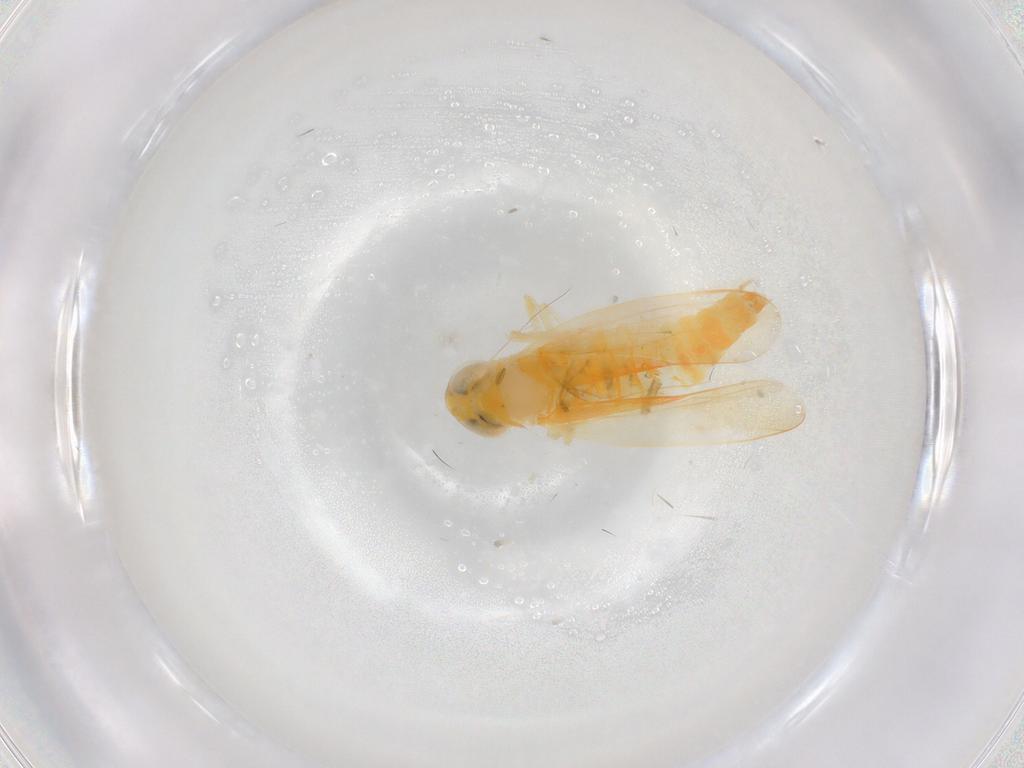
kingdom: Animalia
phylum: Arthropoda
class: Insecta
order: Hemiptera
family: Cicadellidae
